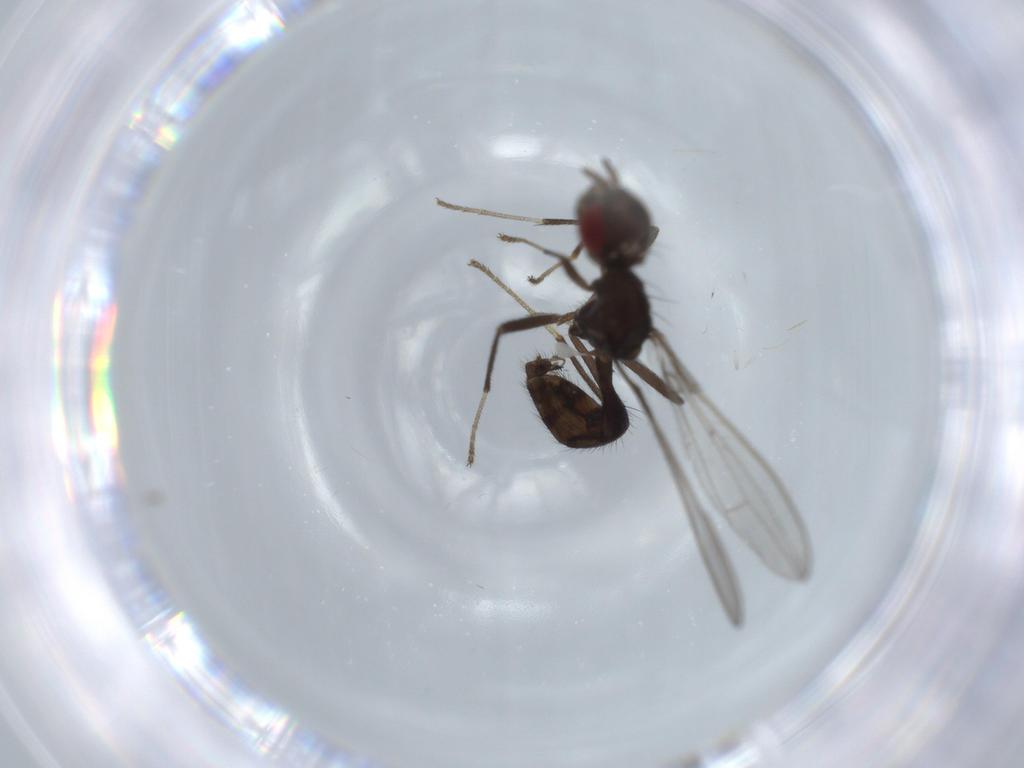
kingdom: Animalia
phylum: Arthropoda
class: Insecta
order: Diptera
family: Richardiidae
